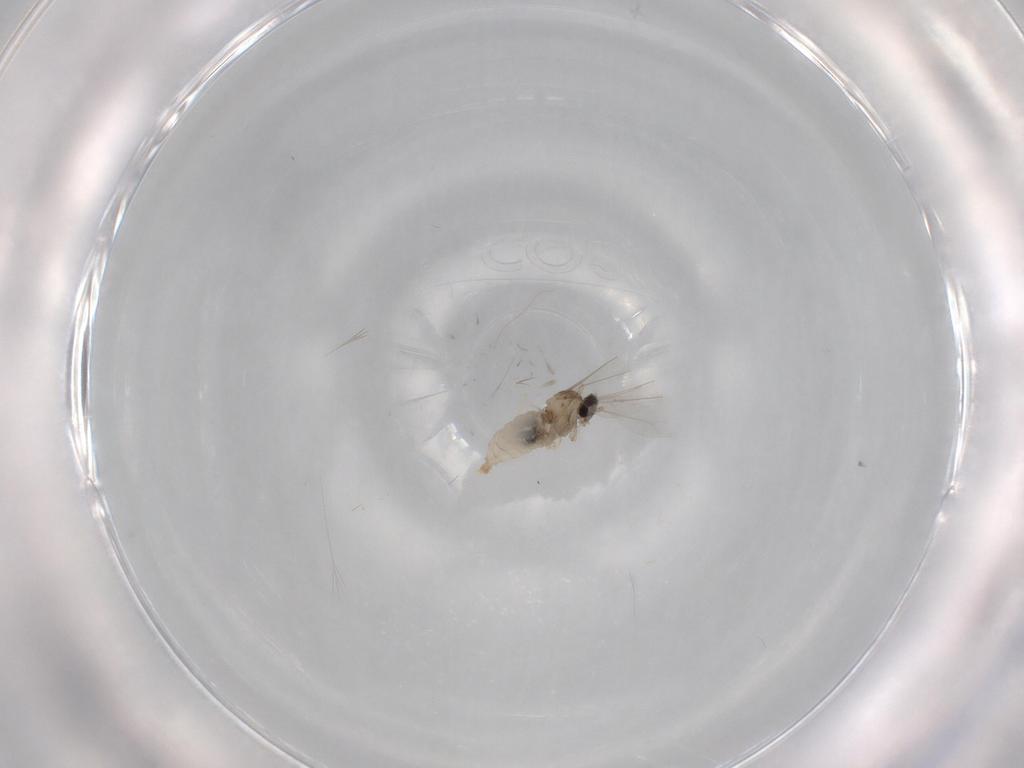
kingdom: Animalia
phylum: Arthropoda
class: Insecta
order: Diptera
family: Cecidomyiidae
